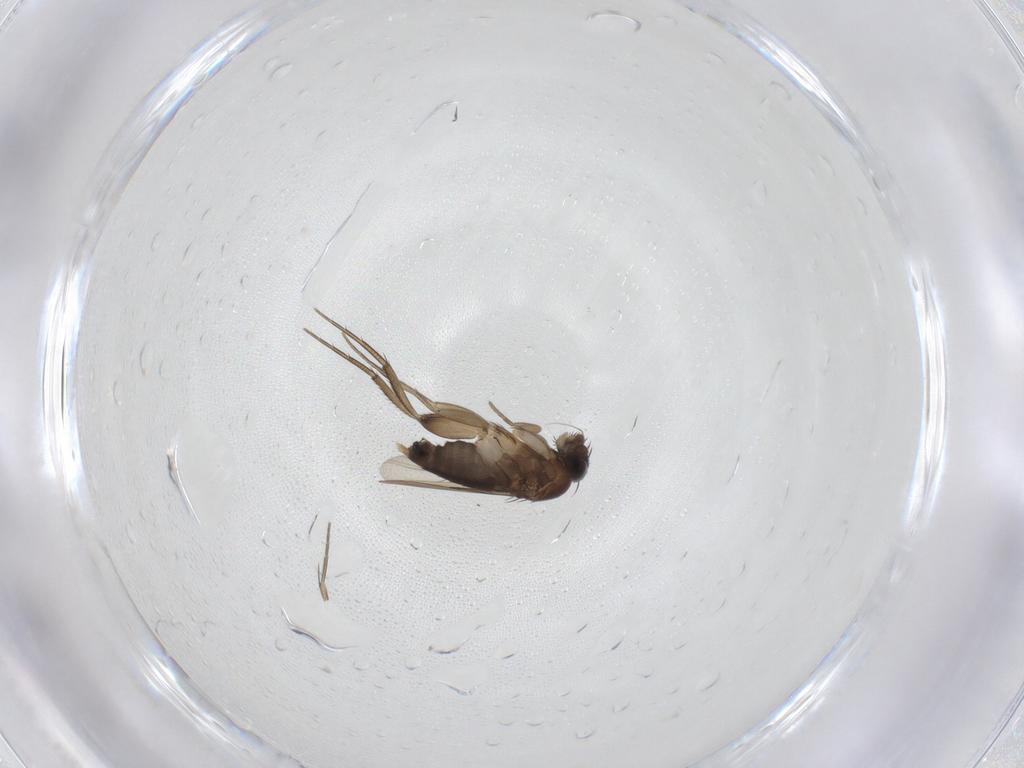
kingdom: Animalia
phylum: Arthropoda
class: Insecta
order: Diptera
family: Phoridae
